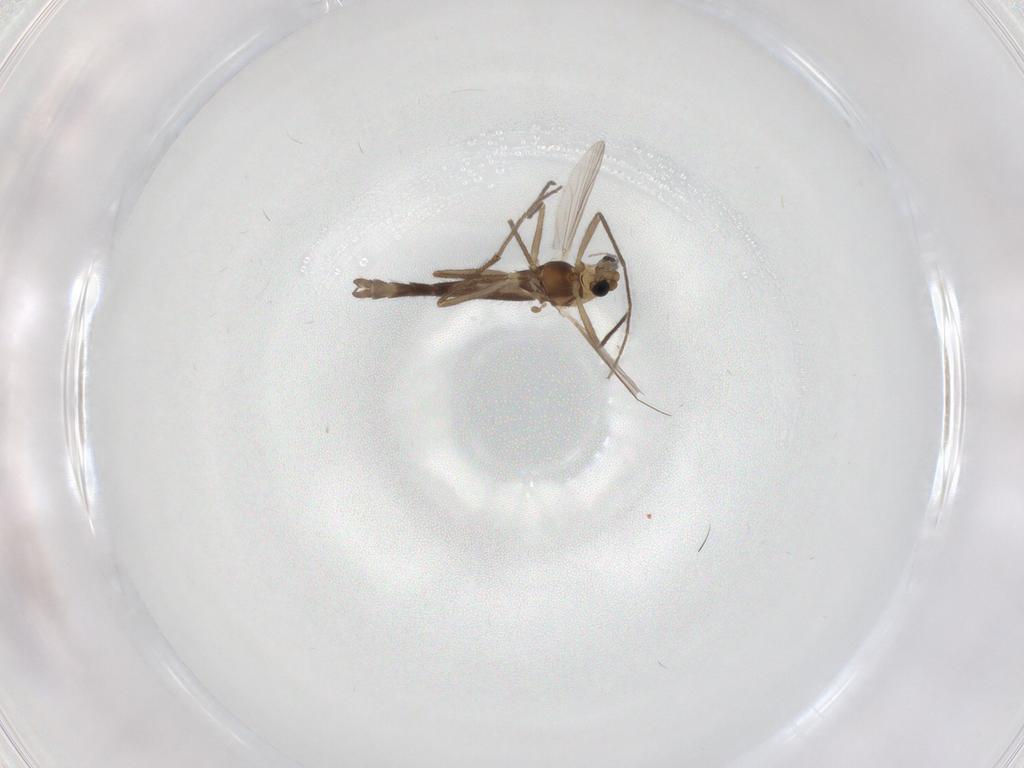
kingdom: Animalia
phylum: Arthropoda
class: Insecta
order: Diptera
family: Chironomidae
